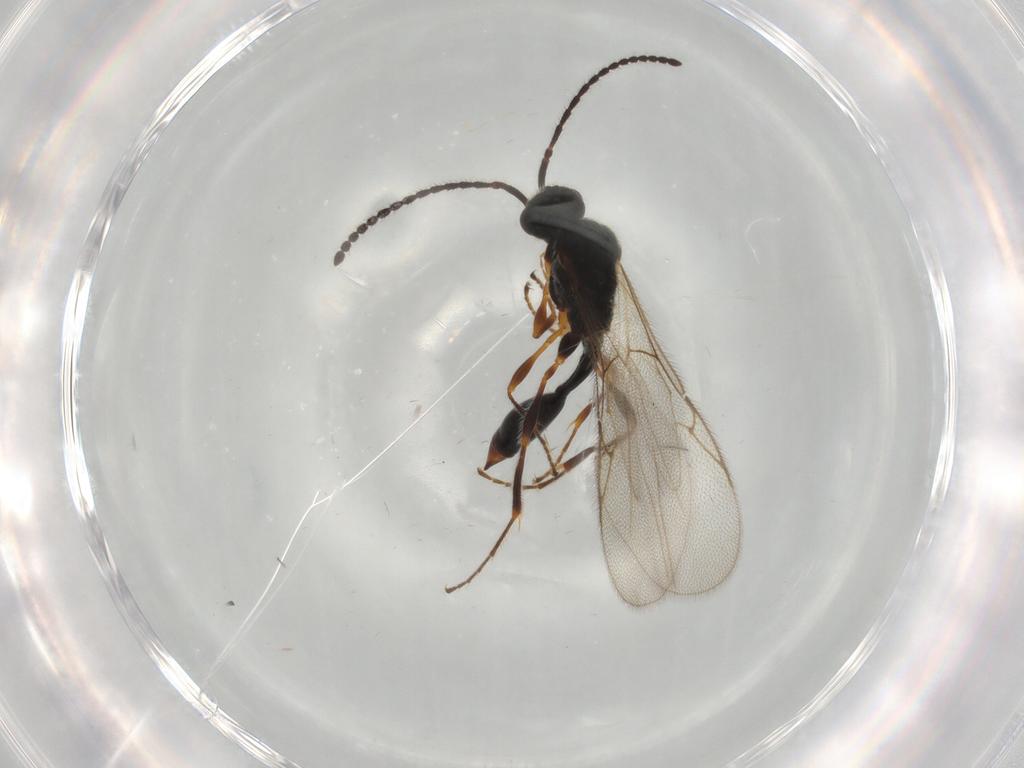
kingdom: Animalia
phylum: Arthropoda
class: Insecta
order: Hymenoptera
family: Diapriidae
